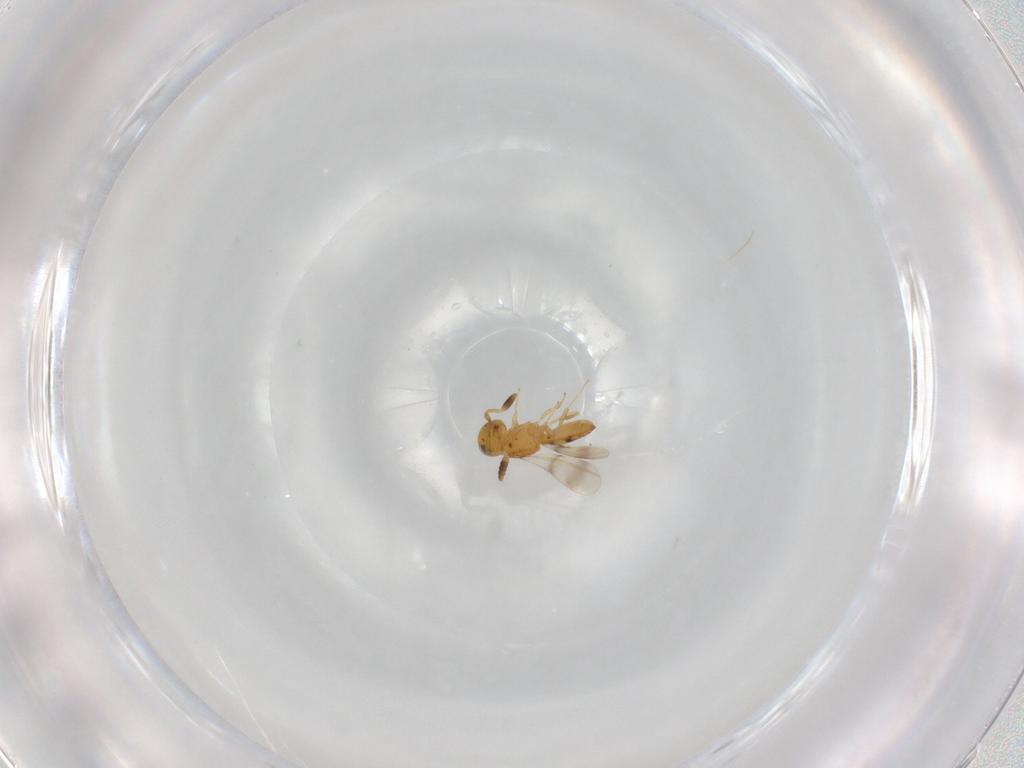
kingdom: Animalia
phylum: Arthropoda
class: Insecta
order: Hymenoptera
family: Scelionidae
